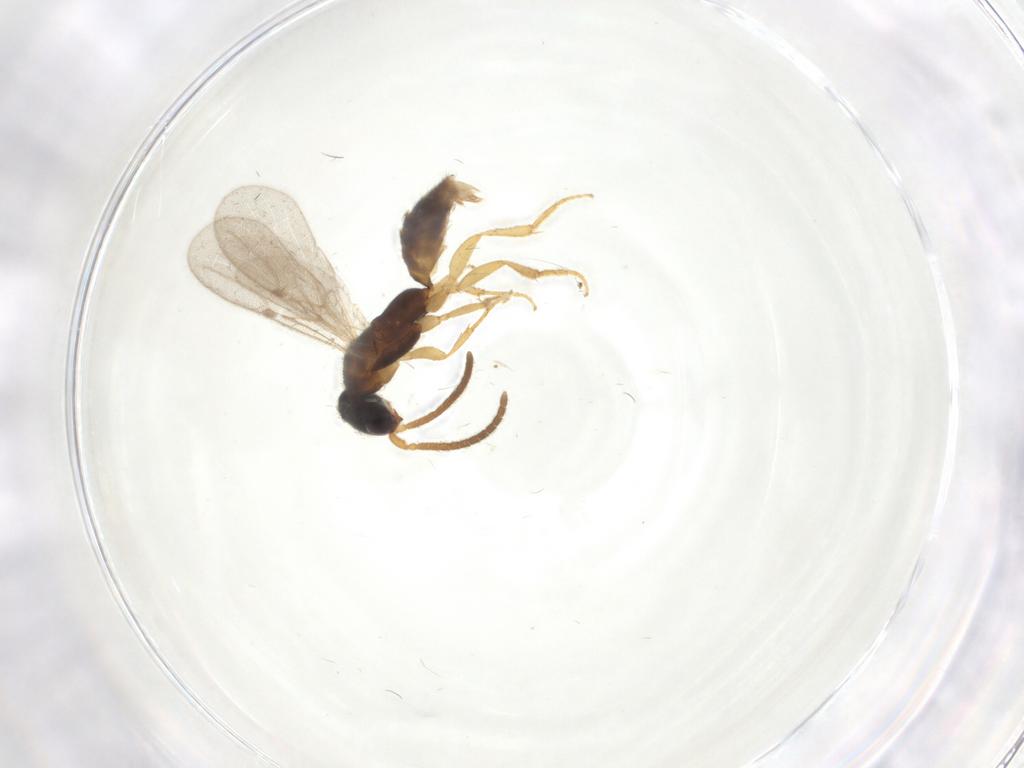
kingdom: Animalia
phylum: Arthropoda
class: Insecta
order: Hymenoptera
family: Bethylidae
